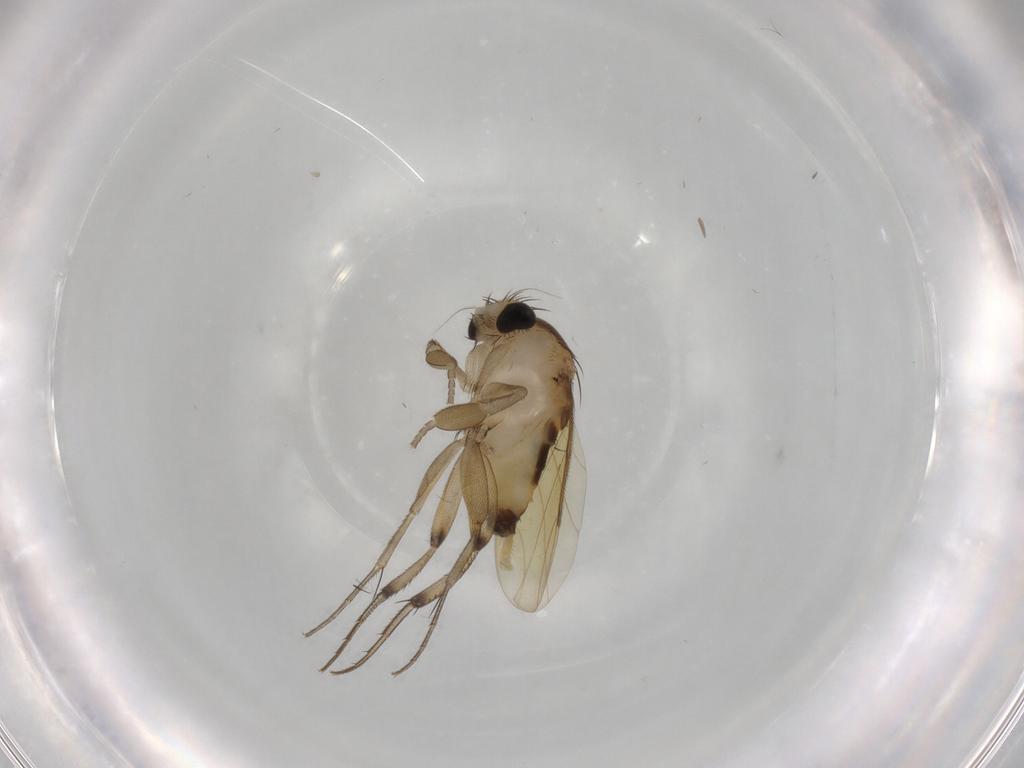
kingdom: Animalia
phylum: Arthropoda
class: Insecta
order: Diptera
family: Phoridae
